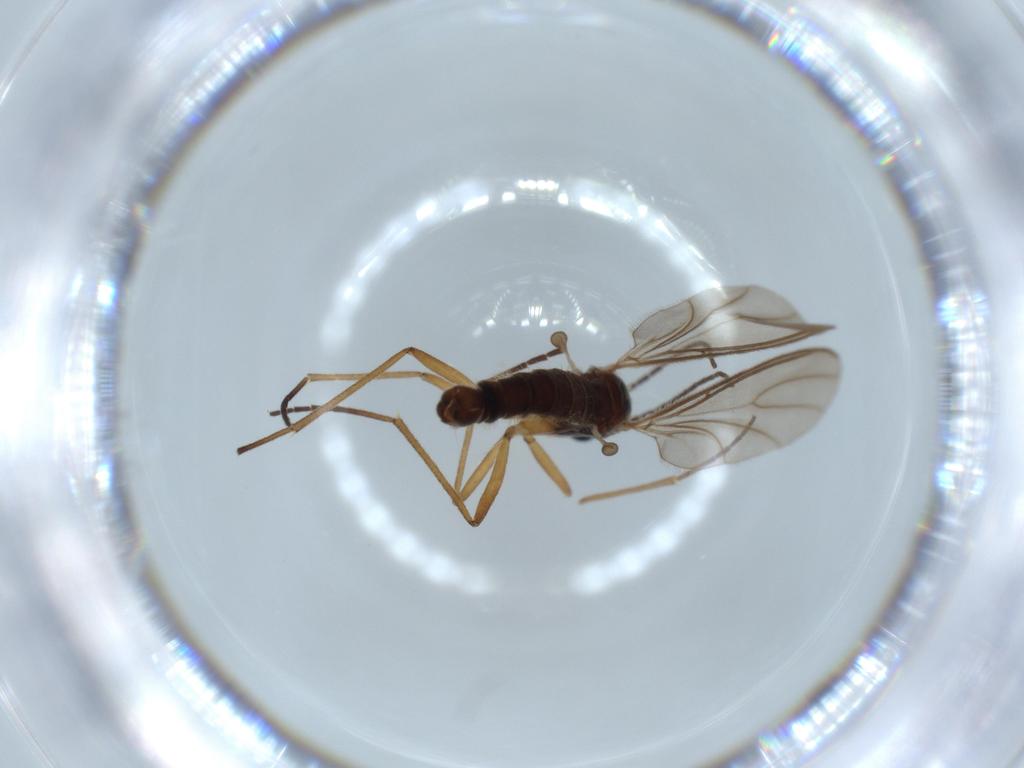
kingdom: Animalia
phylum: Arthropoda
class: Insecta
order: Diptera
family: Sciaridae
